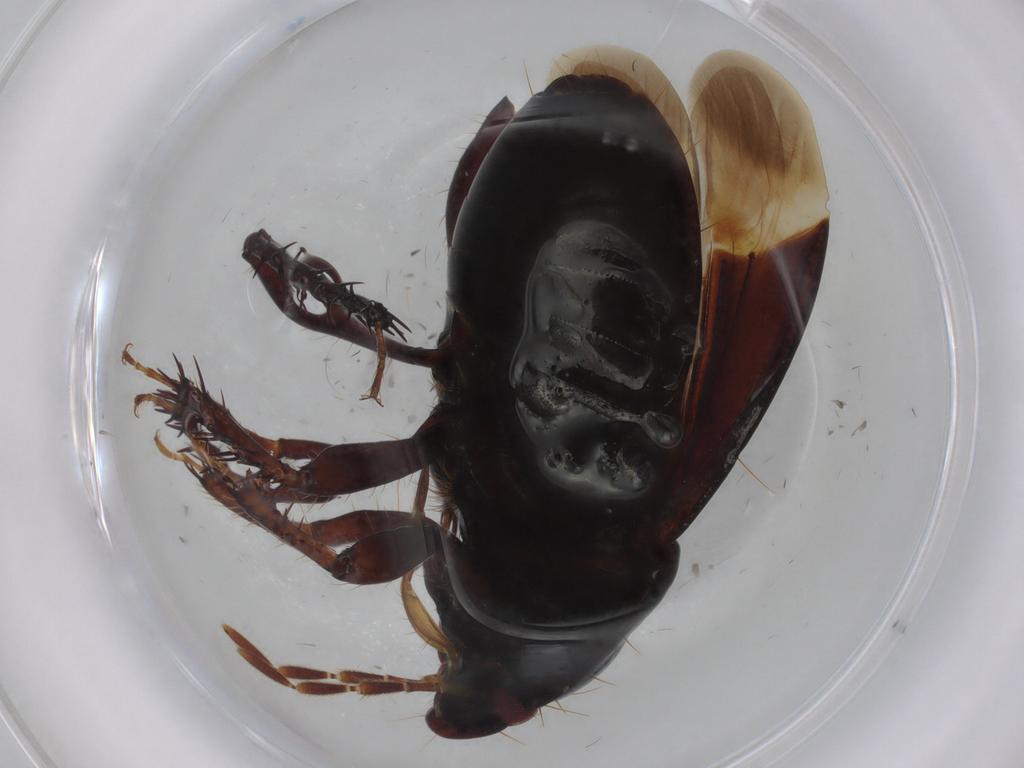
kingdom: Animalia
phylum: Arthropoda
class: Insecta
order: Hemiptera
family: Cydnidae
